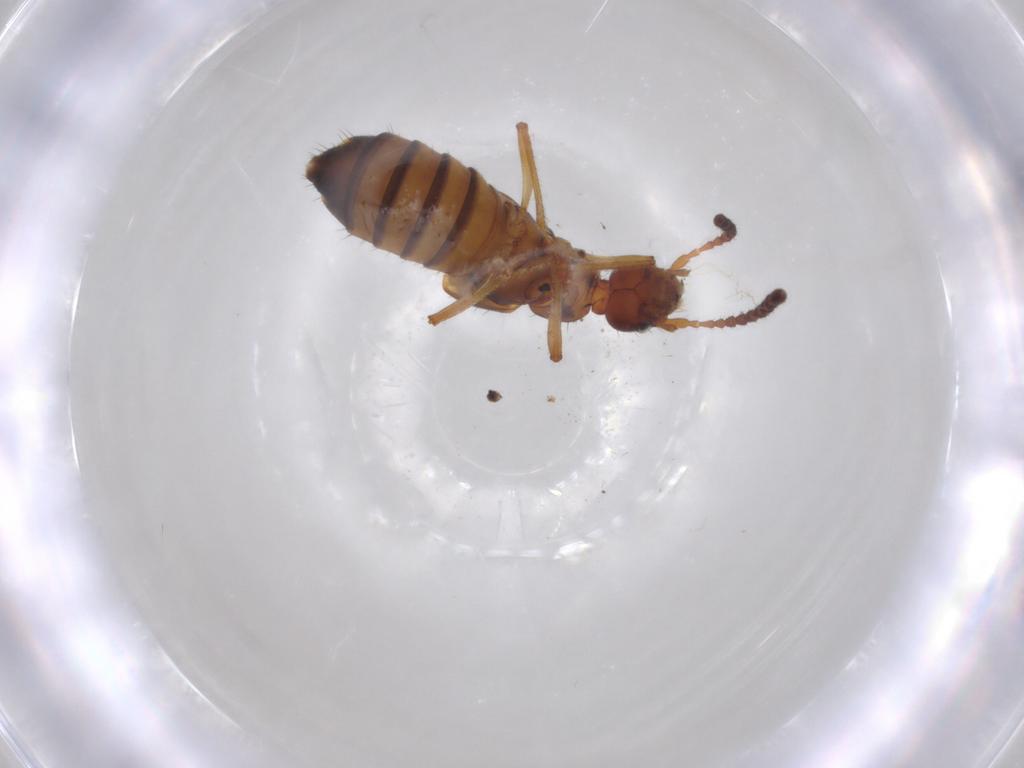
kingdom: Animalia
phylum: Arthropoda
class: Insecta
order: Coleoptera
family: Staphylinidae
